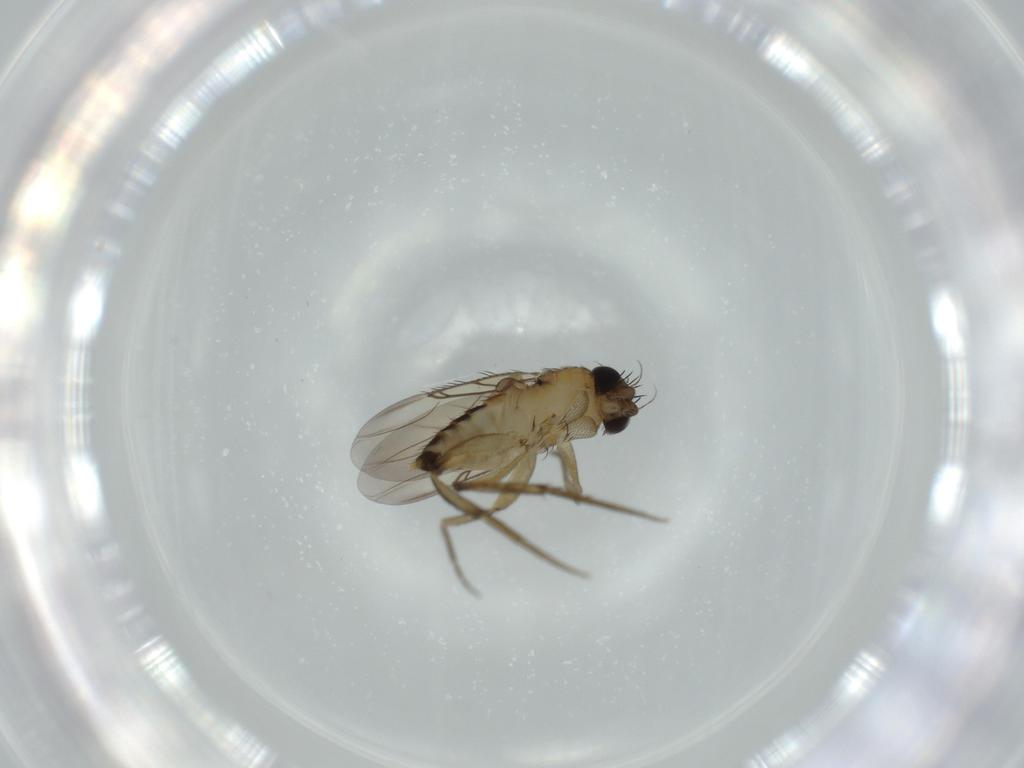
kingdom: Animalia
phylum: Arthropoda
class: Insecta
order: Diptera
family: Phoridae
